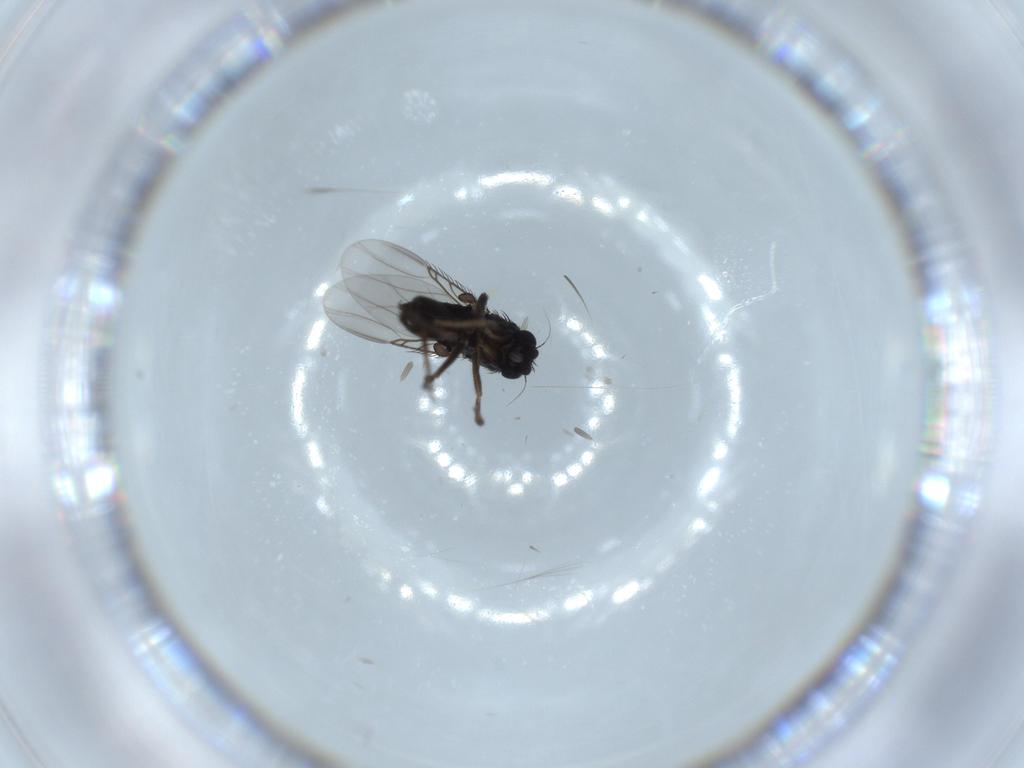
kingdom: Animalia
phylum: Arthropoda
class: Insecta
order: Diptera
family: Phoridae
